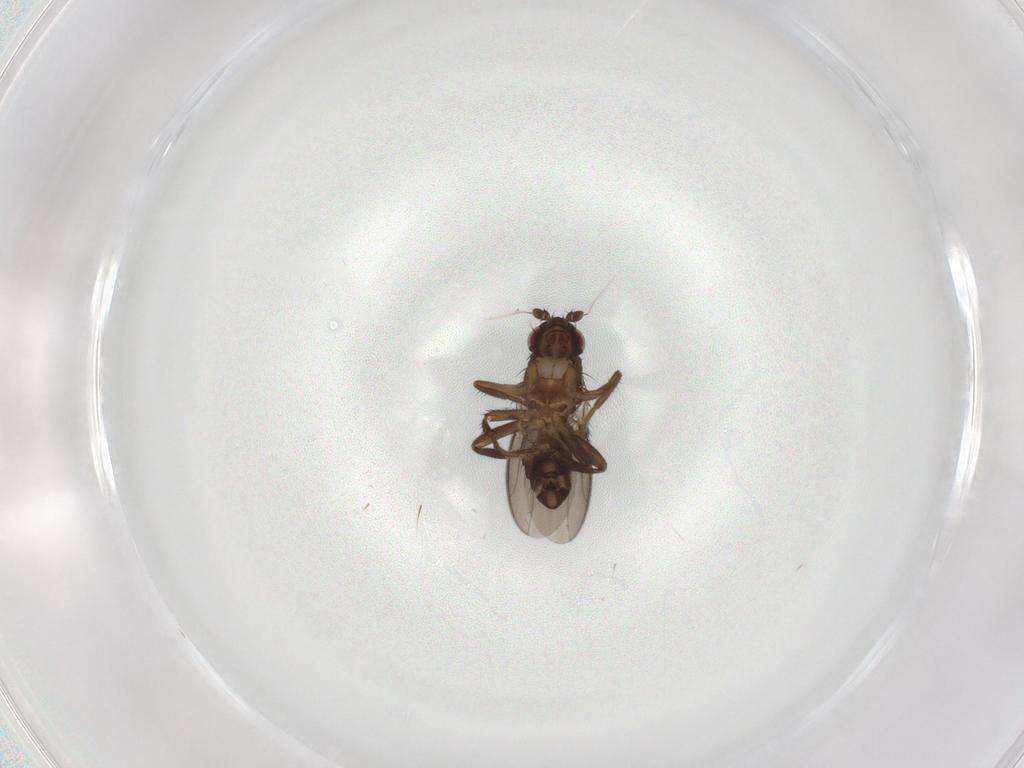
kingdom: Animalia
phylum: Arthropoda
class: Insecta
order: Diptera
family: Sphaeroceridae
